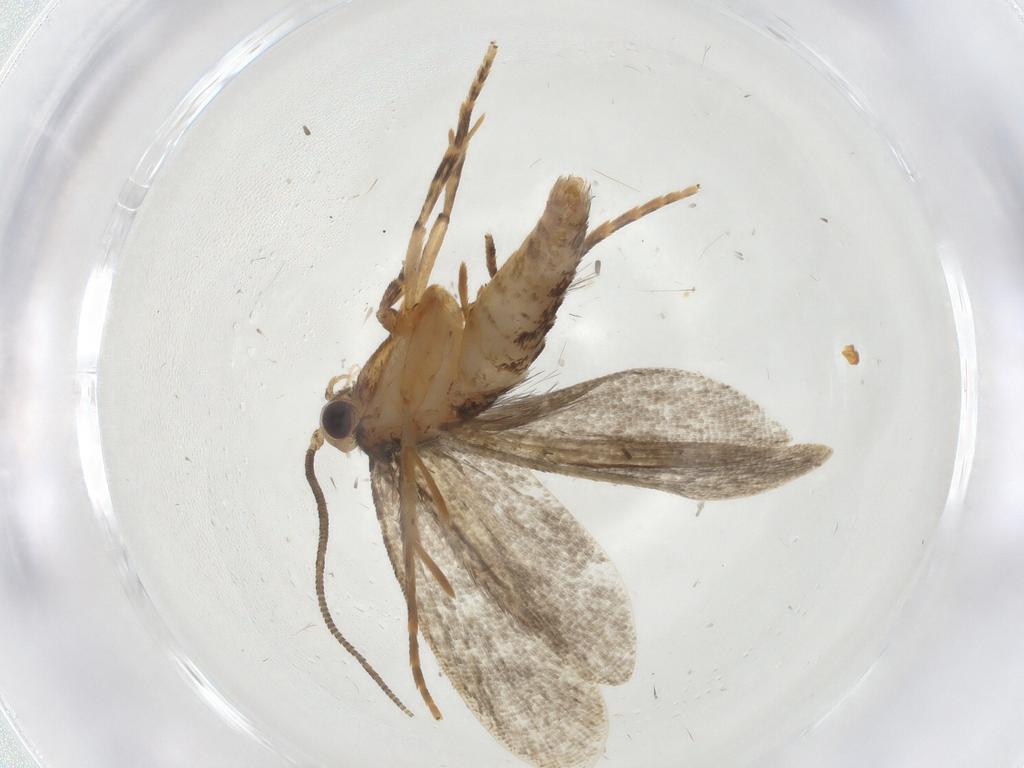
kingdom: Animalia
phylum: Arthropoda
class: Insecta
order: Lepidoptera
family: Tineidae
